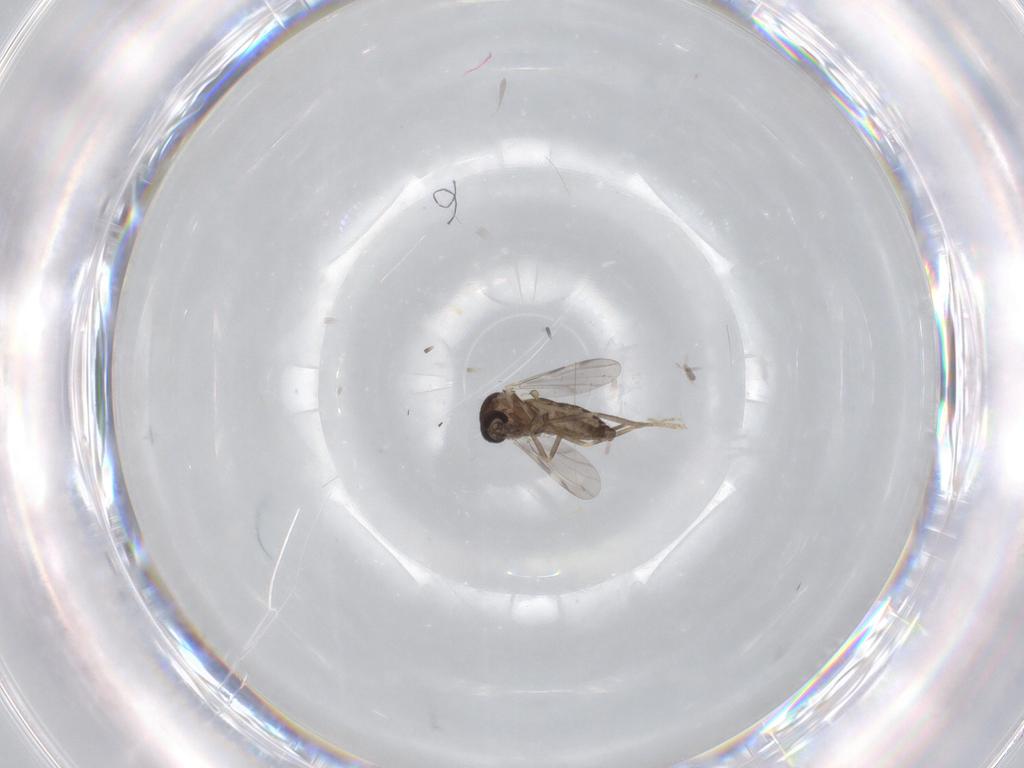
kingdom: Animalia
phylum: Arthropoda
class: Insecta
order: Diptera
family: Ceratopogonidae
